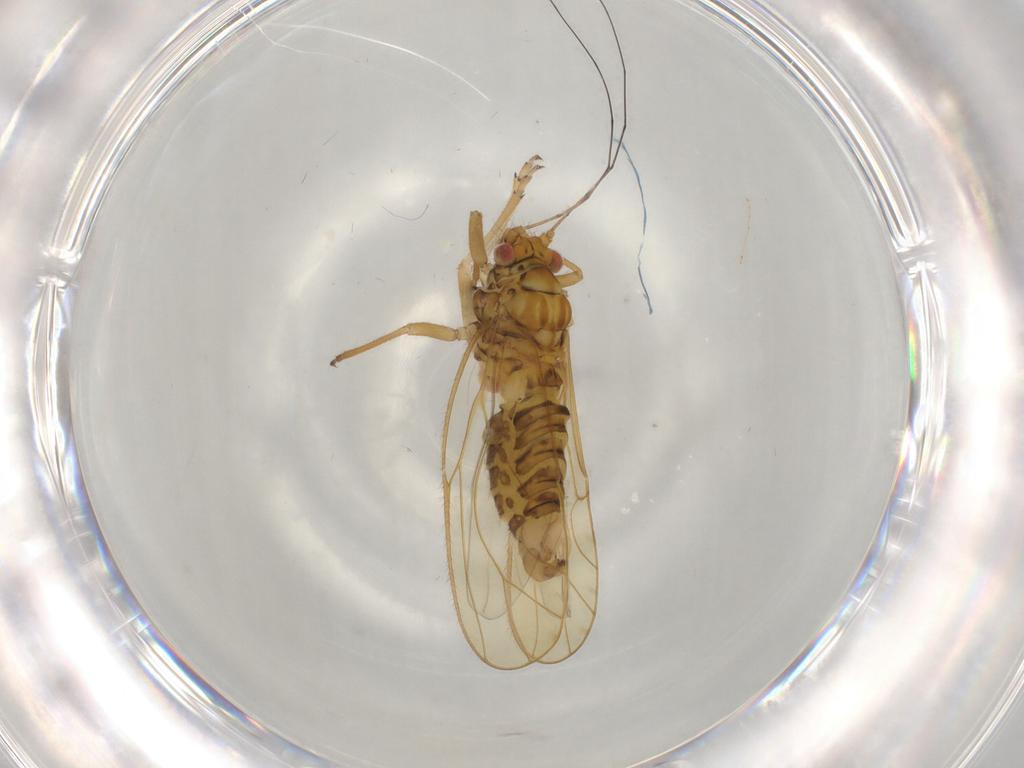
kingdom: Animalia
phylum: Arthropoda
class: Insecta
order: Hemiptera
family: Psyllidae
